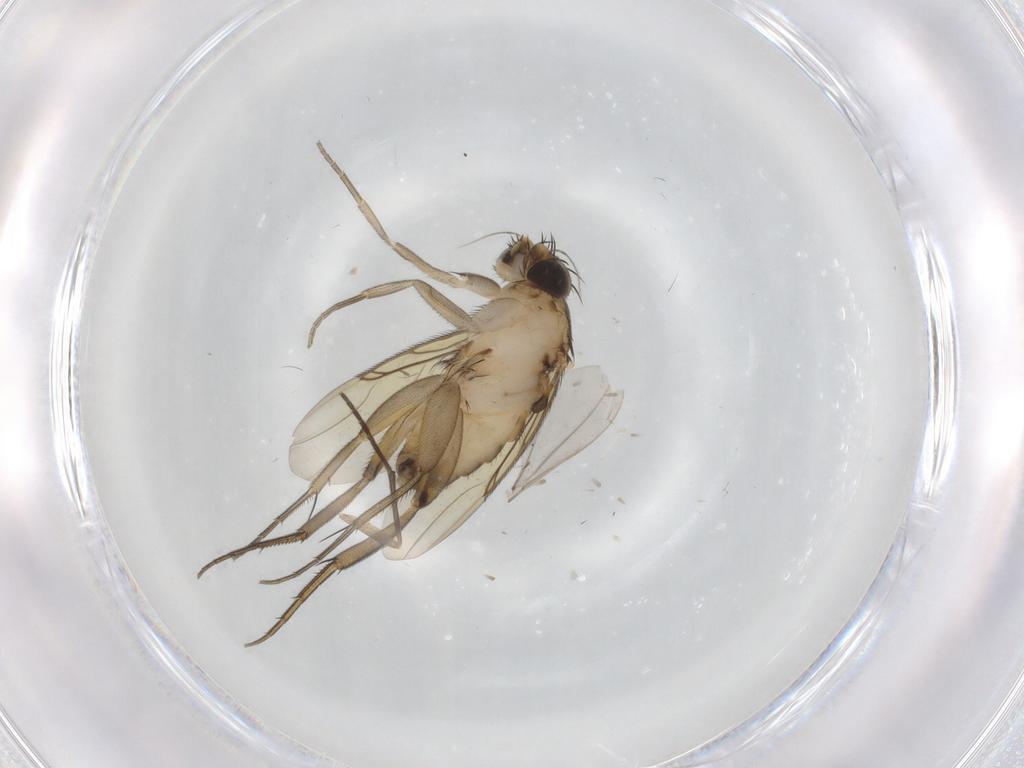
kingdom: Animalia
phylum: Arthropoda
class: Insecta
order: Diptera
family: Phoridae
